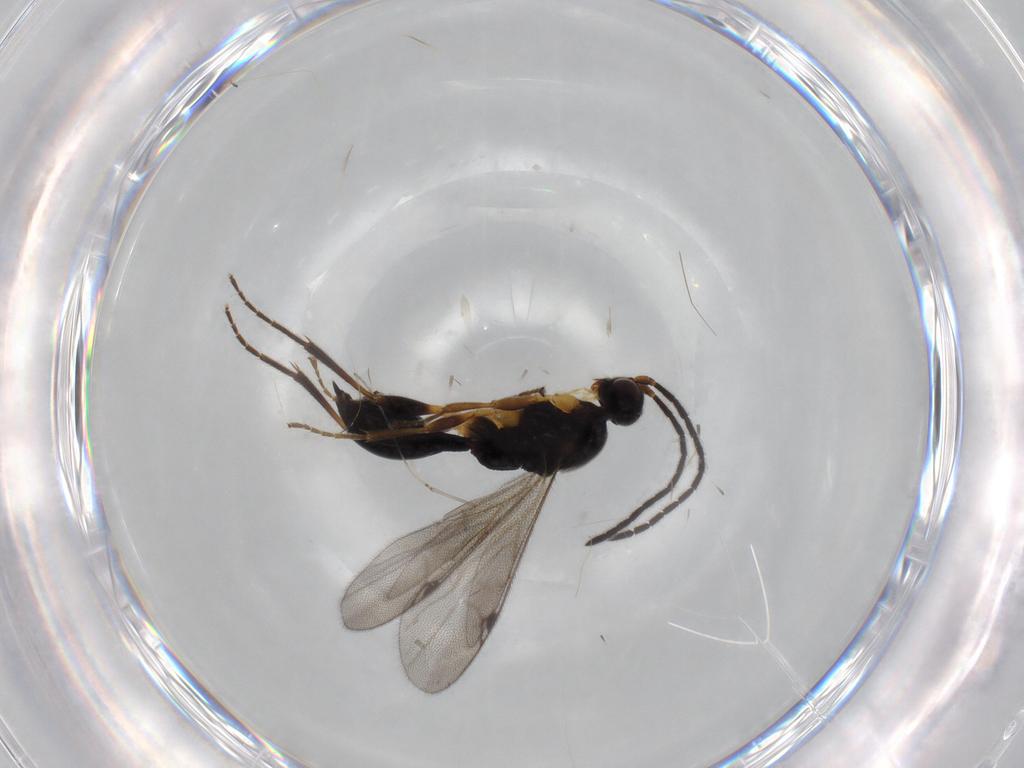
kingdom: Animalia
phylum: Arthropoda
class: Insecta
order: Hymenoptera
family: Proctotrupidae
